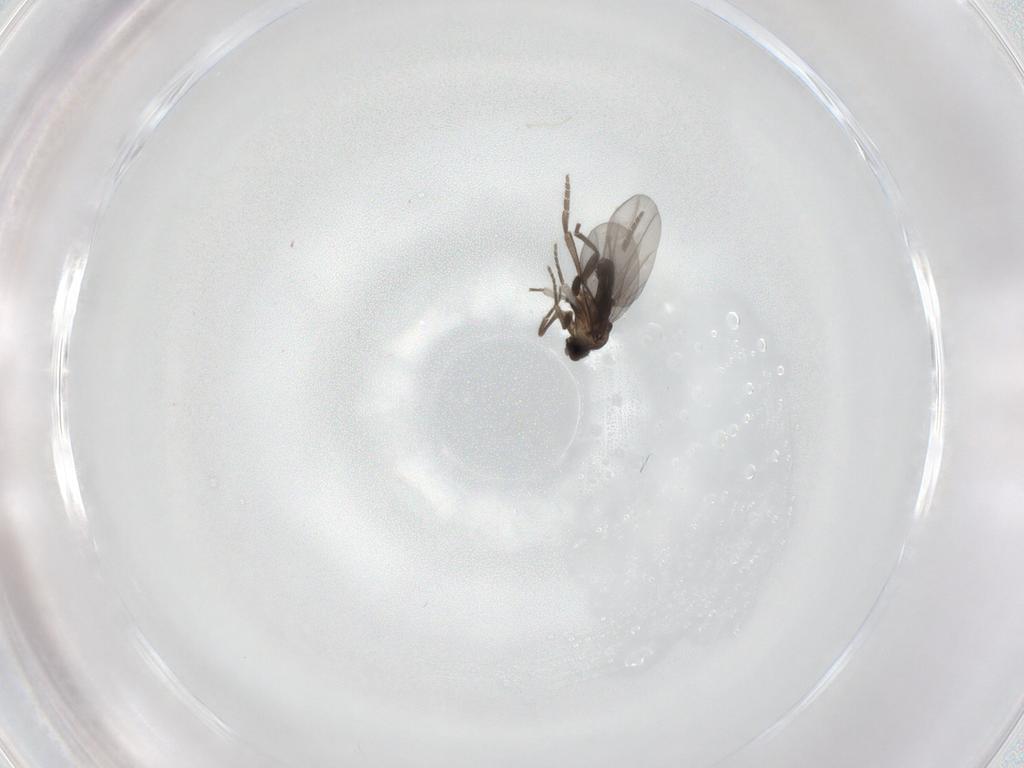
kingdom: Animalia
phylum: Arthropoda
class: Insecta
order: Diptera
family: Phoridae
